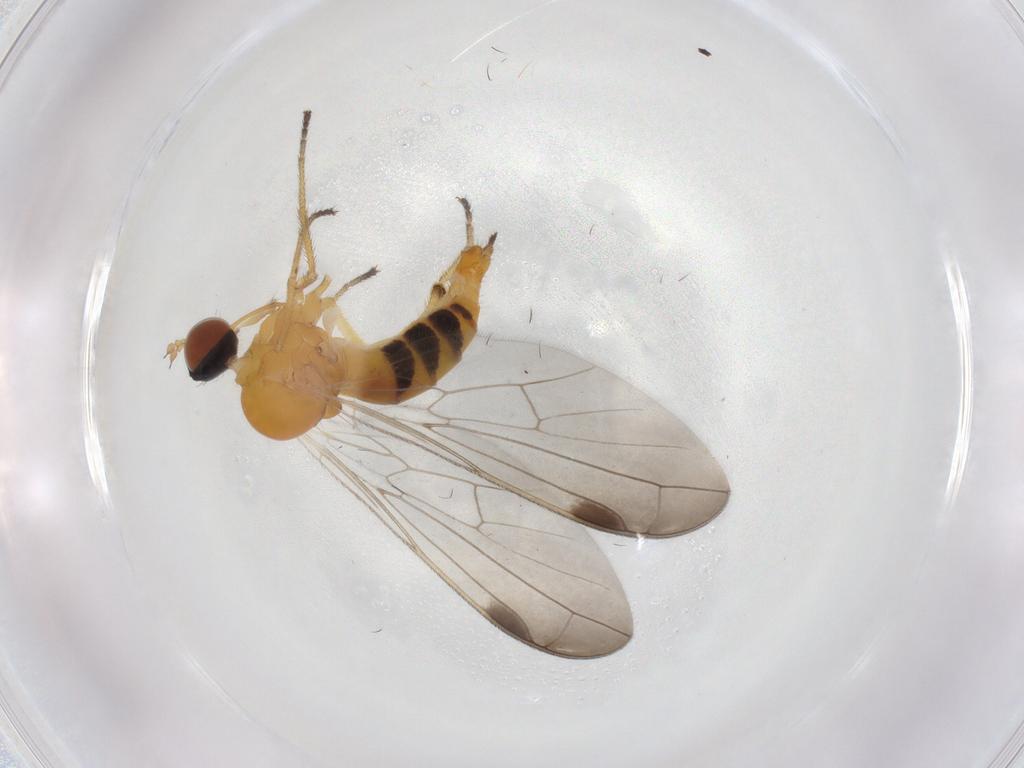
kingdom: Animalia
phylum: Arthropoda
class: Insecta
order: Diptera
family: Empididae
